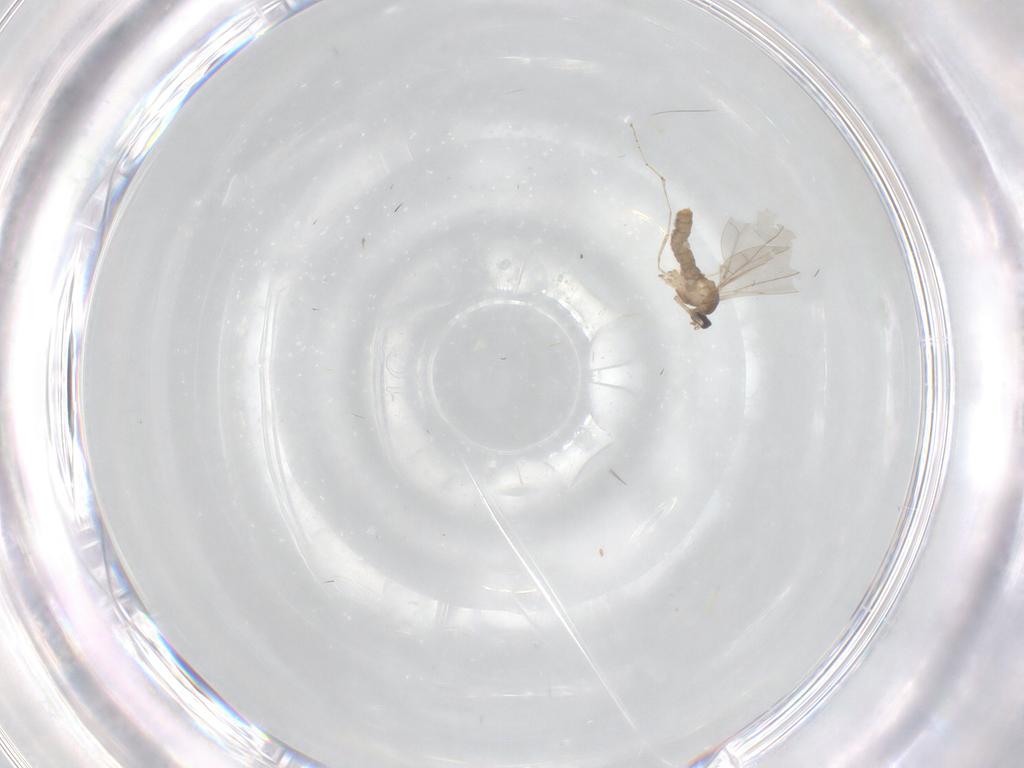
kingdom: Animalia
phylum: Arthropoda
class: Insecta
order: Diptera
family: Cecidomyiidae
